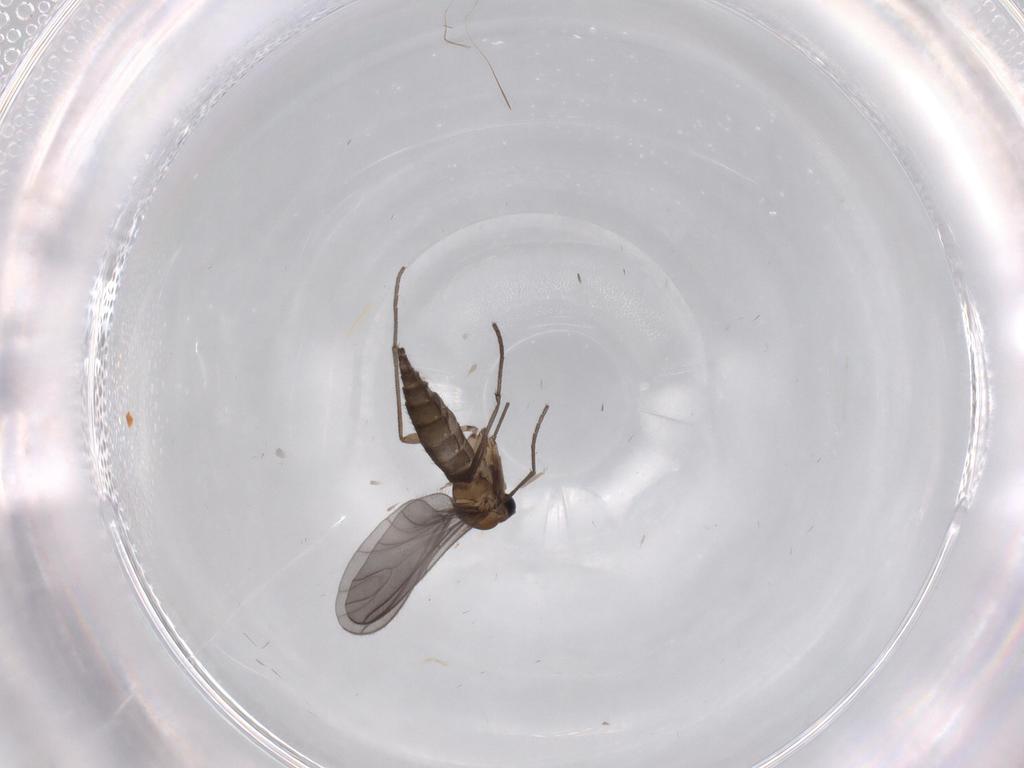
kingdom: Animalia
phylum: Arthropoda
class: Insecta
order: Diptera
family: Sciaridae
